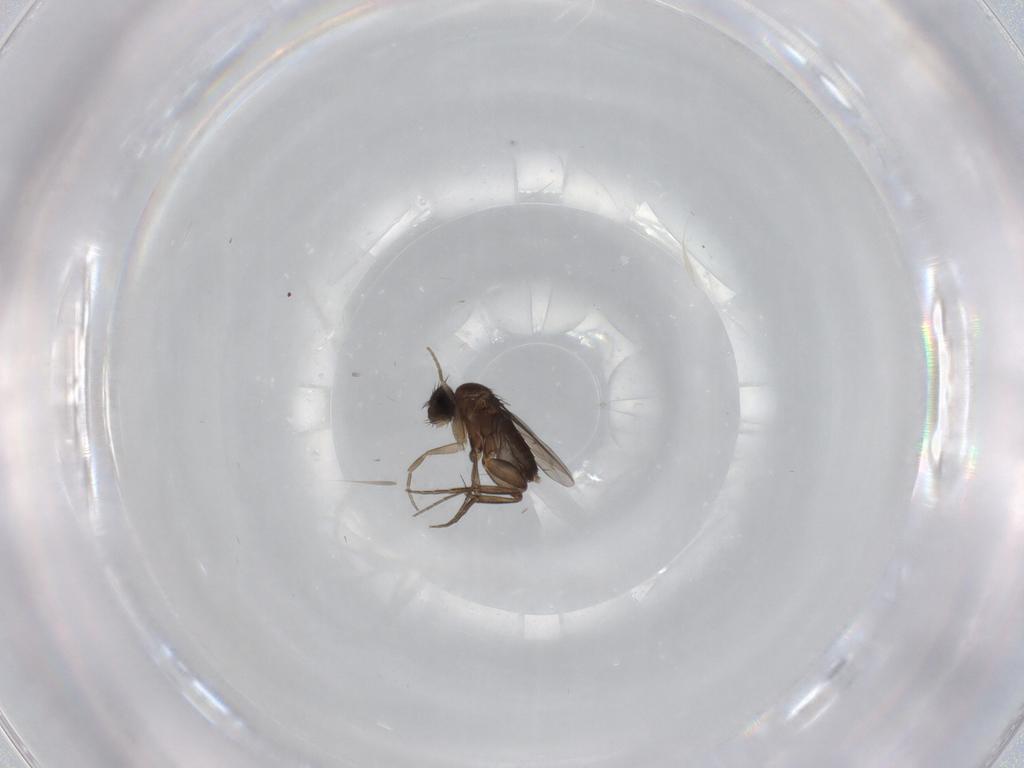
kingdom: Animalia
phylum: Arthropoda
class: Insecta
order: Diptera
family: Phoridae
